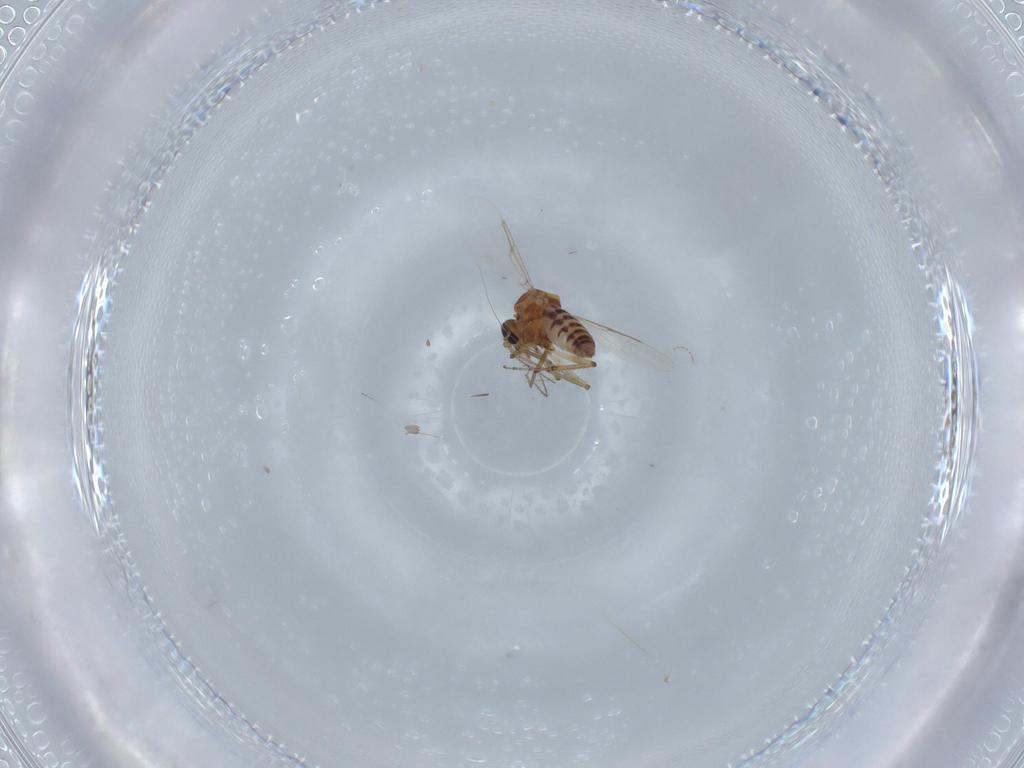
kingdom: Animalia
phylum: Arthropoda
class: Insecta
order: Diptera
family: Ceratopogonidae
